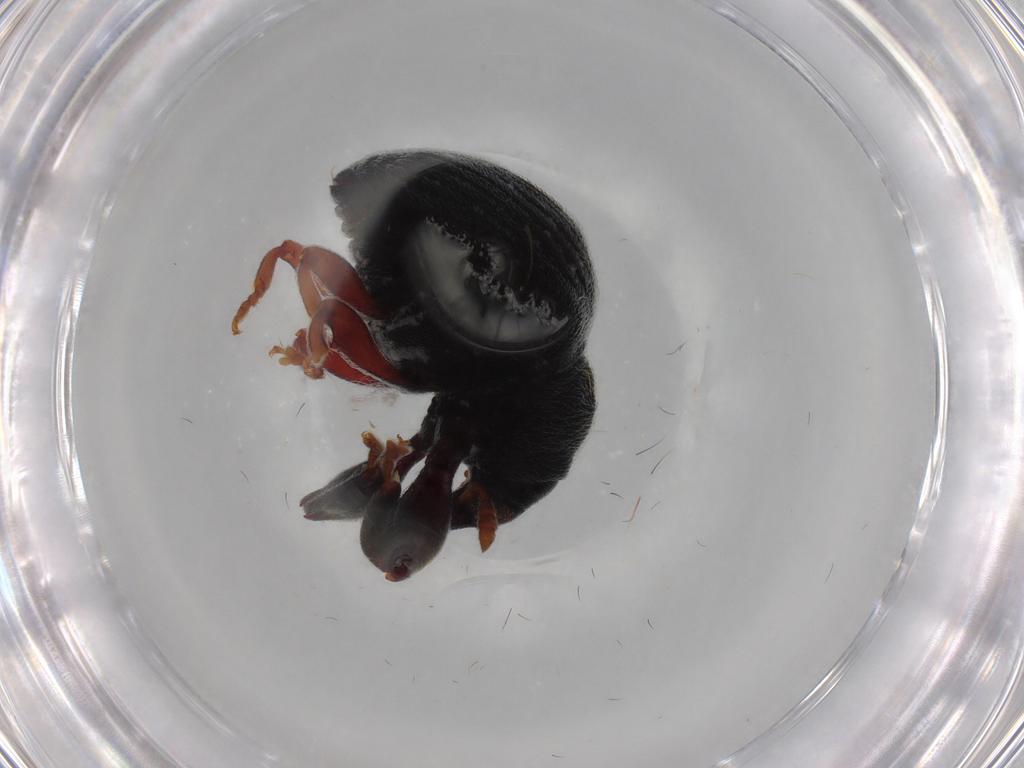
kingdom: Animalia
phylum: Arthropoda
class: Insecta
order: Coleoptera
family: Curculionidae
